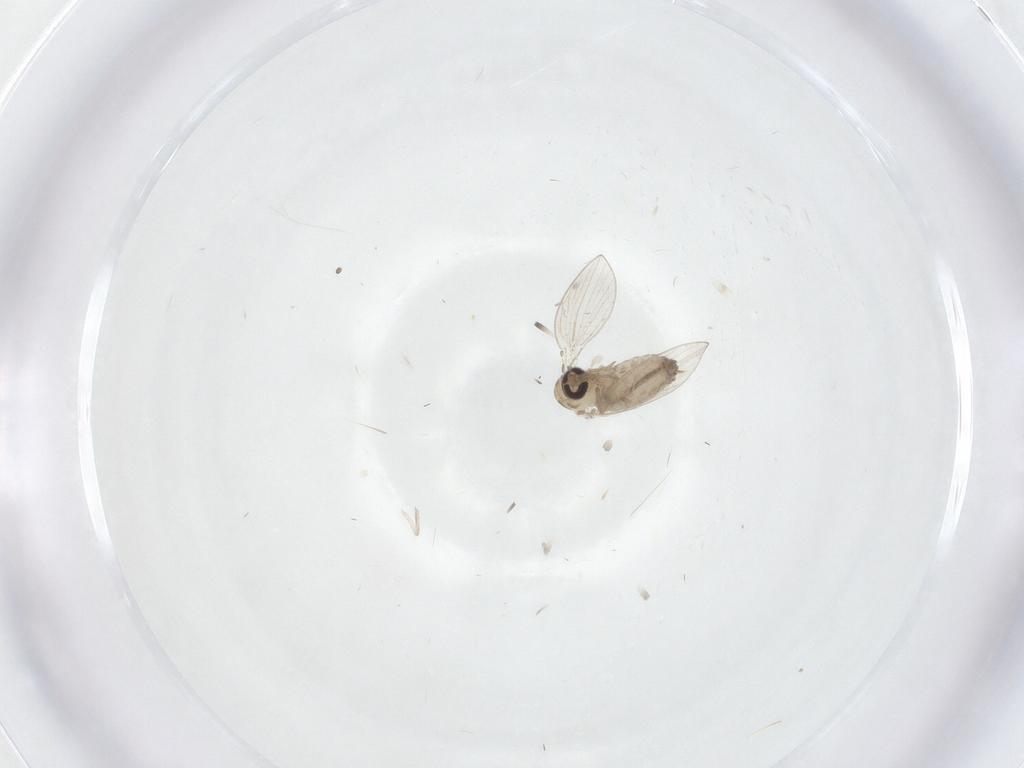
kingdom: Animalia
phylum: Arthropoda
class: Insecta
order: Diptera
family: Psychodidae
